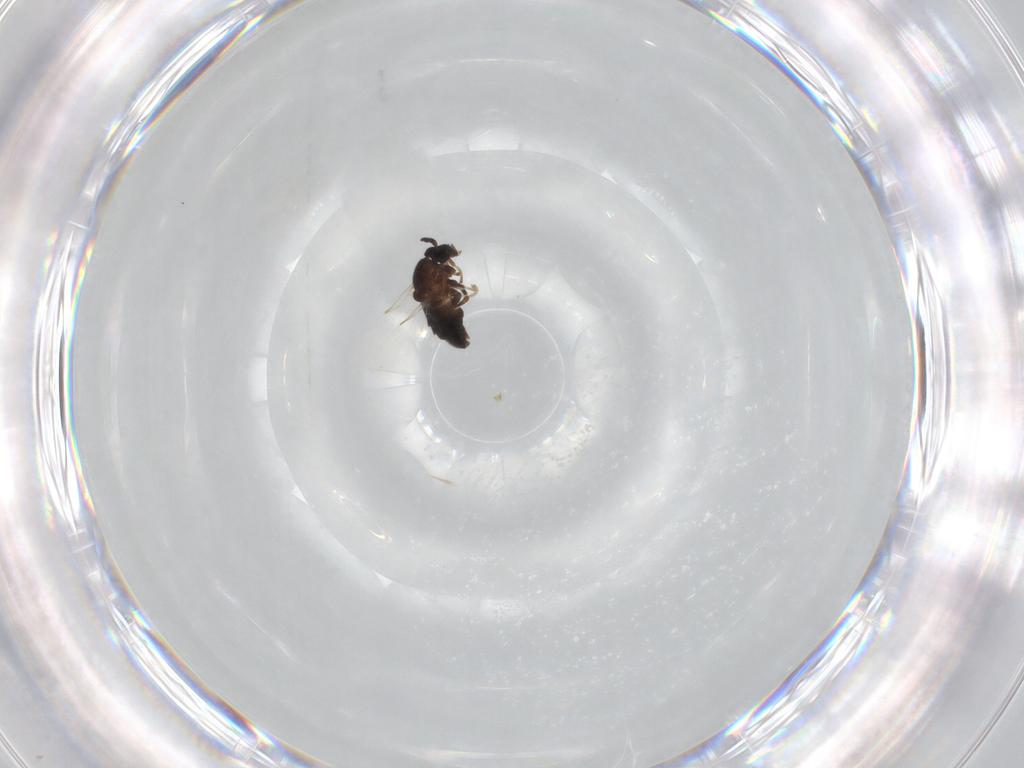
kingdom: Animalia
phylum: Arthropoda
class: Insecta
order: Diptera
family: Scatopsidae
